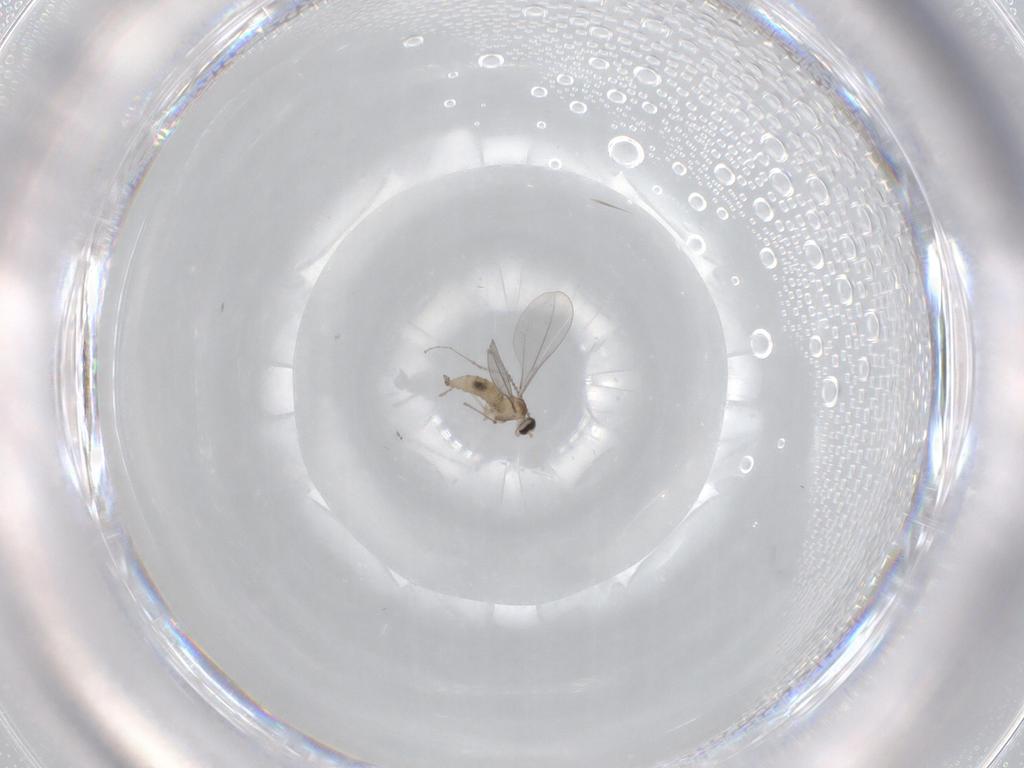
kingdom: Animalia
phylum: Arthropoda
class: Insecta
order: Diptera
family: Cecidomyiidae
